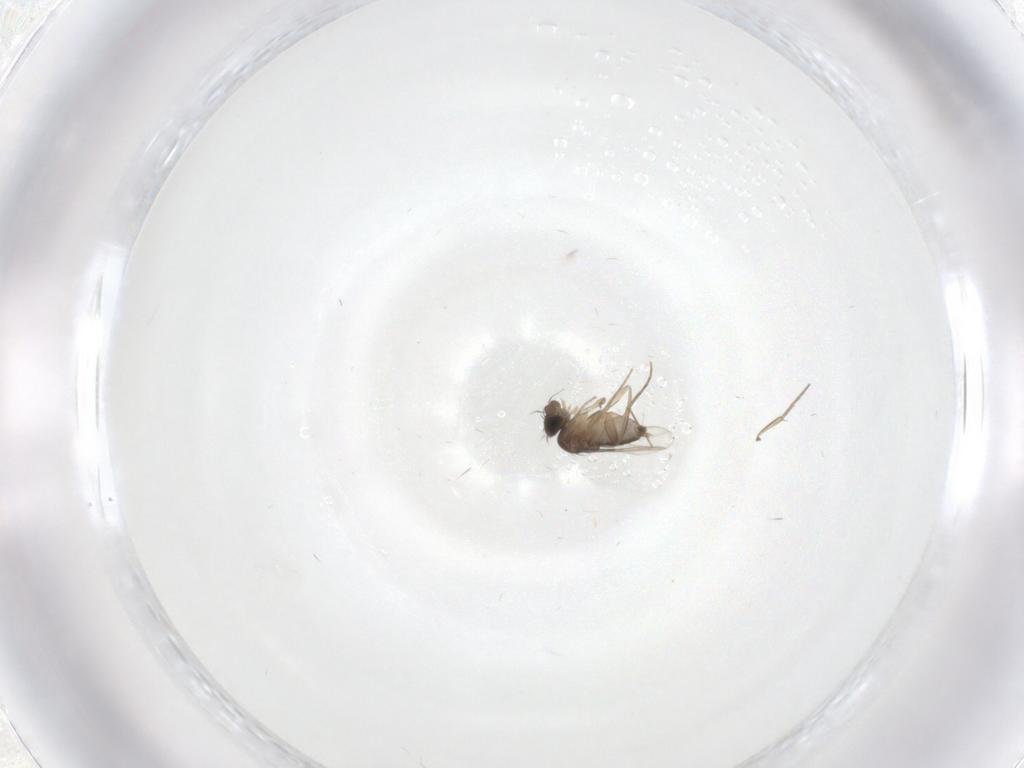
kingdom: Animalia
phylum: Arthropoda
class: Insecta
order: Diptera
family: Phoridae
